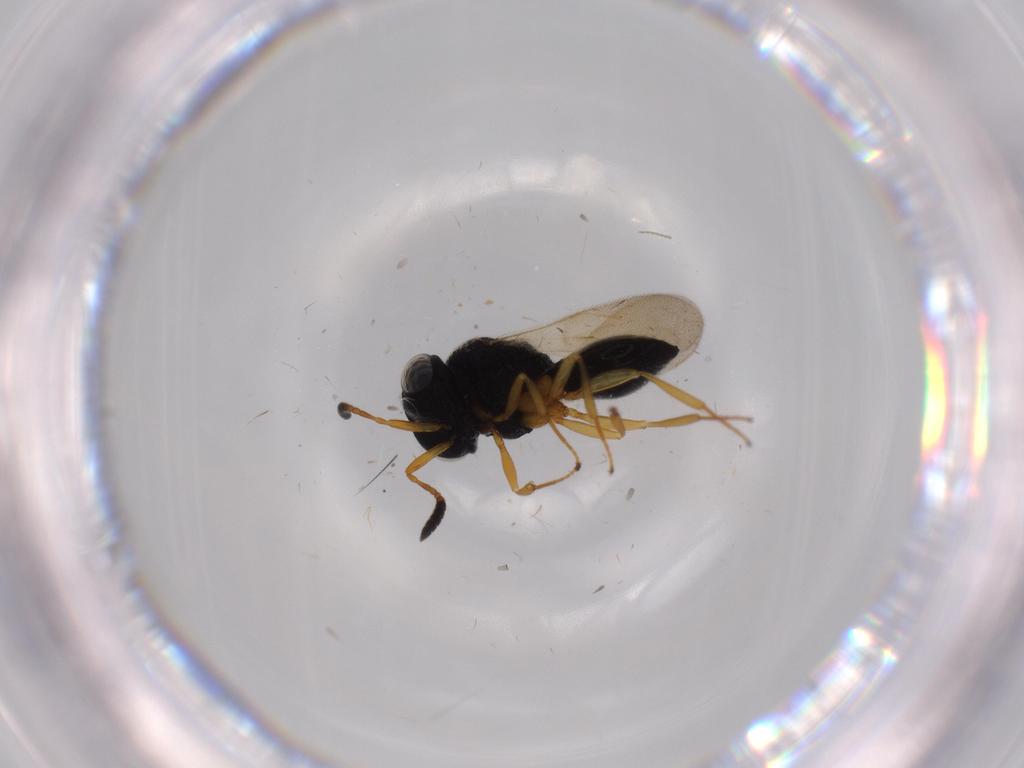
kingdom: Animalia
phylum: Arthropoda
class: Insecta
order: Hymenoptera
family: Scelionidae
